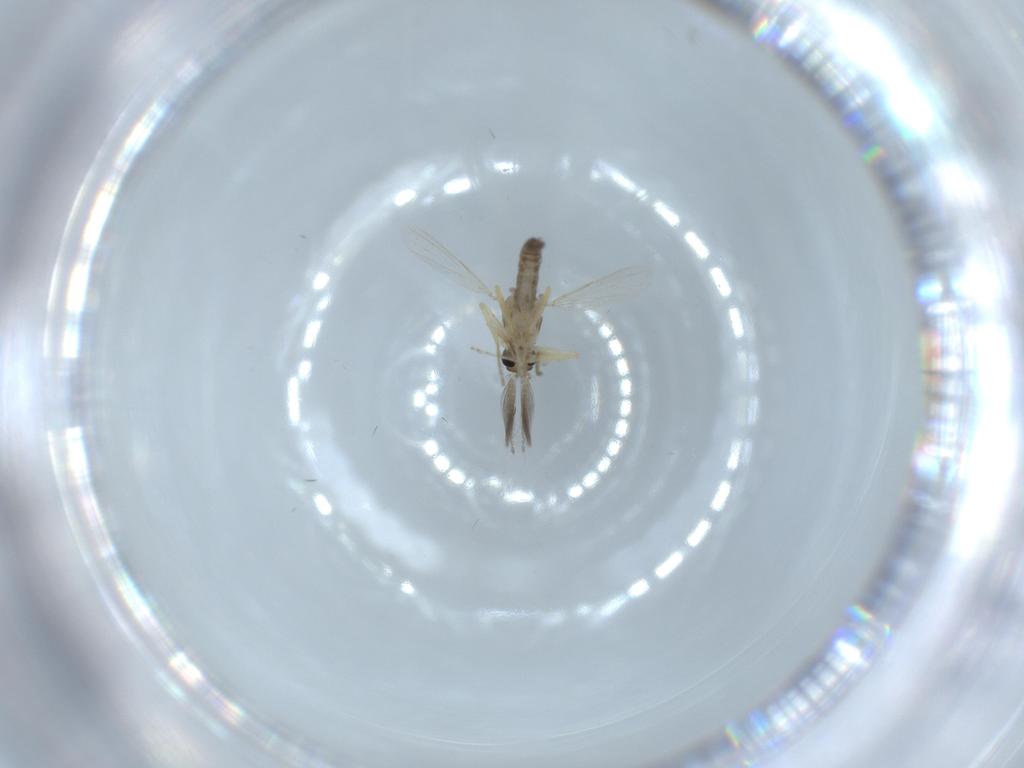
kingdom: Animalia
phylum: Arthropoda
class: Insecta
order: Diptera
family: Ceratopogonidae
